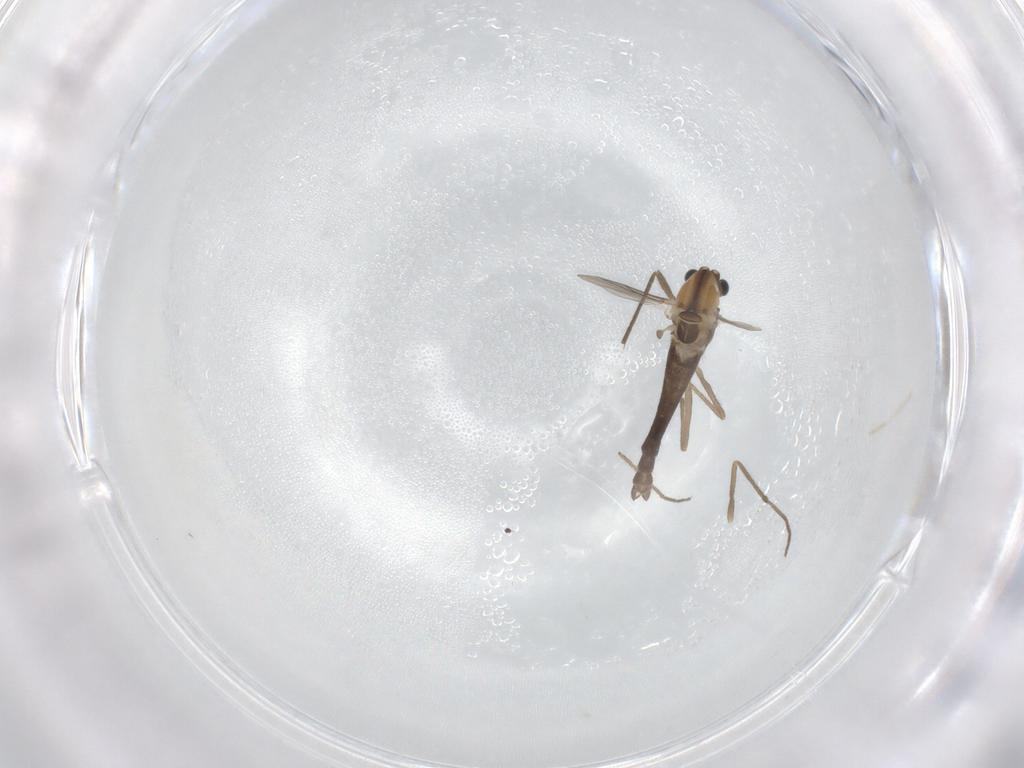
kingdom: Animalia
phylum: Arthropoda
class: Insecta
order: Diptera
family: Chironomidae
